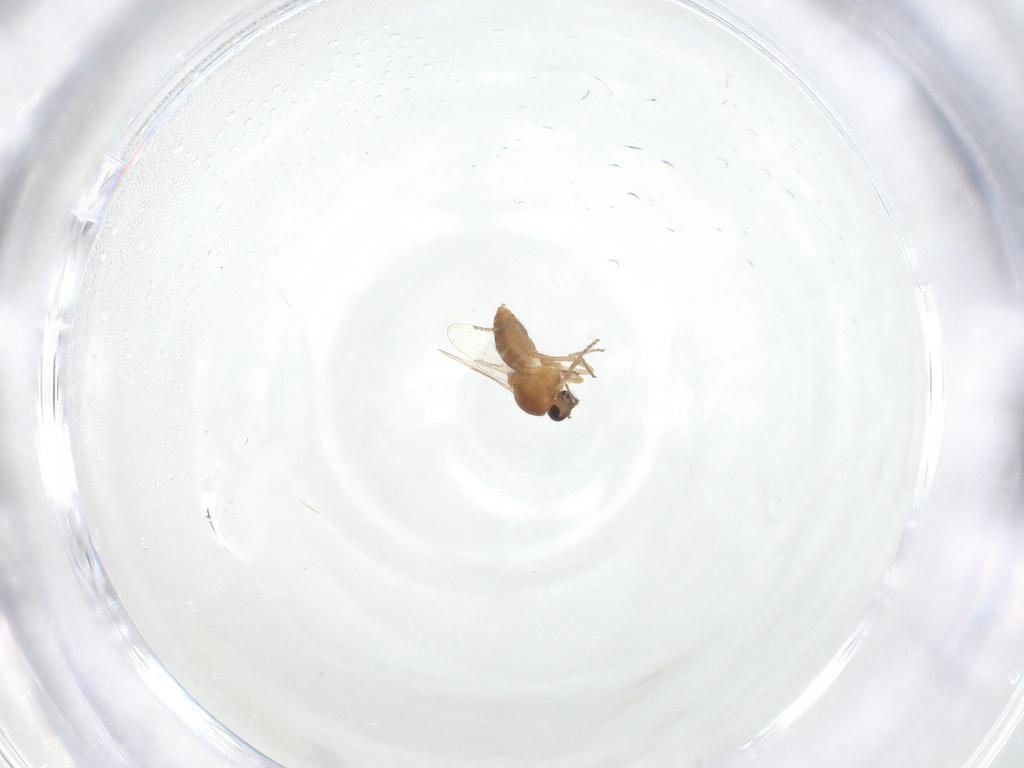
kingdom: Animalia
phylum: Arthropoda
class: Insecta
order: Diptera
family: Ceratopogonidae
